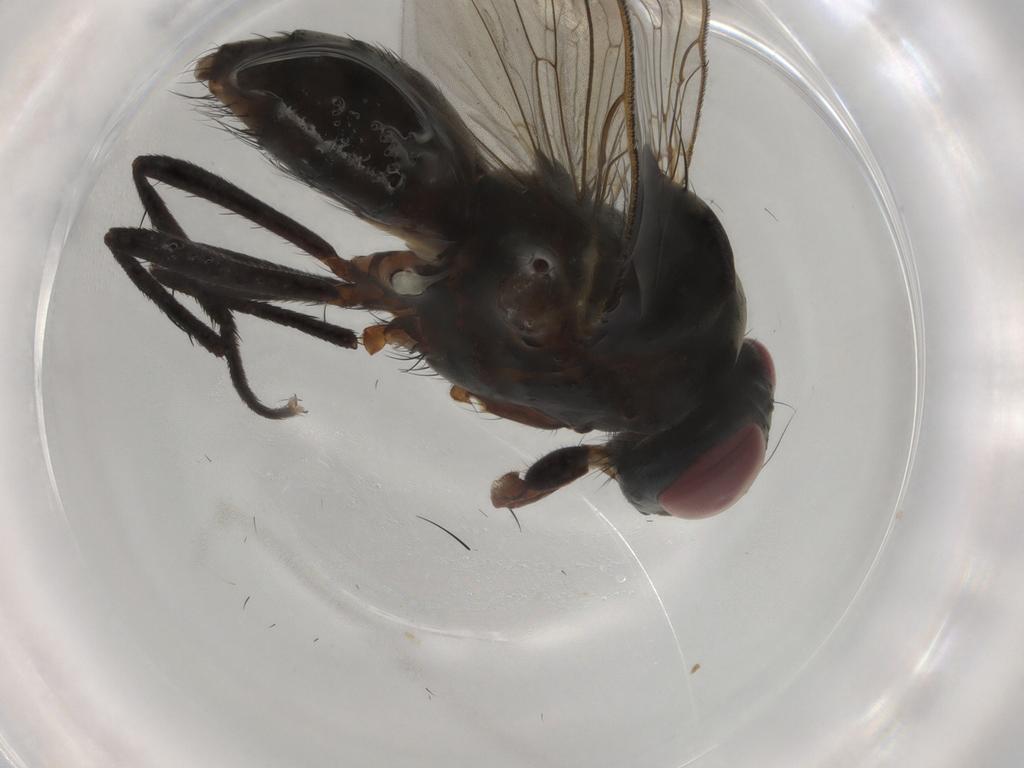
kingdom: Animalia
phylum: Arthropoda
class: Insecta
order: Diptera
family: Anthomyiidae
